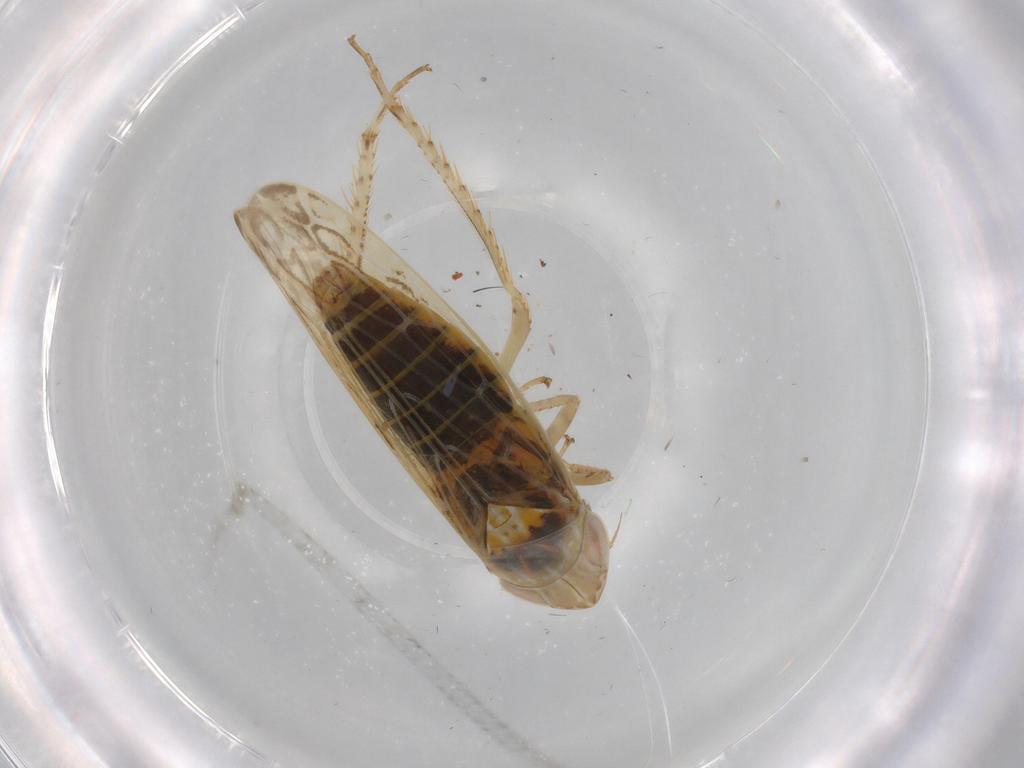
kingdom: Animalia
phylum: Arthropoda
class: Insecta
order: Hemiptera
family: Cicadellidae
